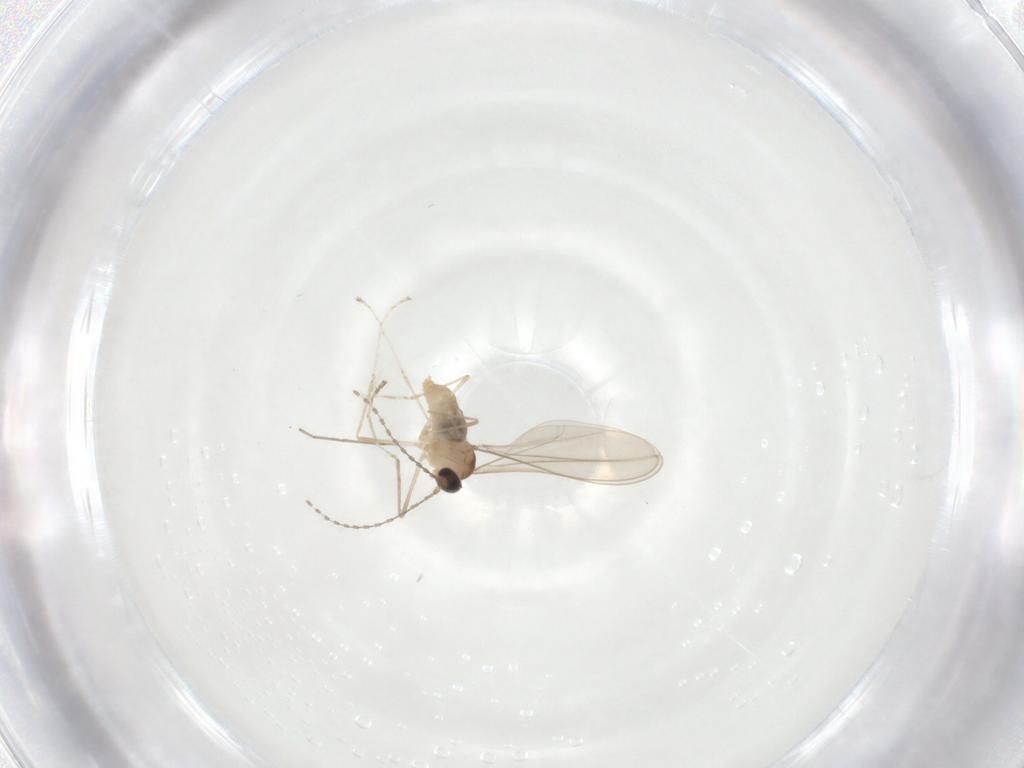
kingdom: Animalia
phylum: Arthropoda
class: Insecta
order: Diptera
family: Cecidomyiidae
